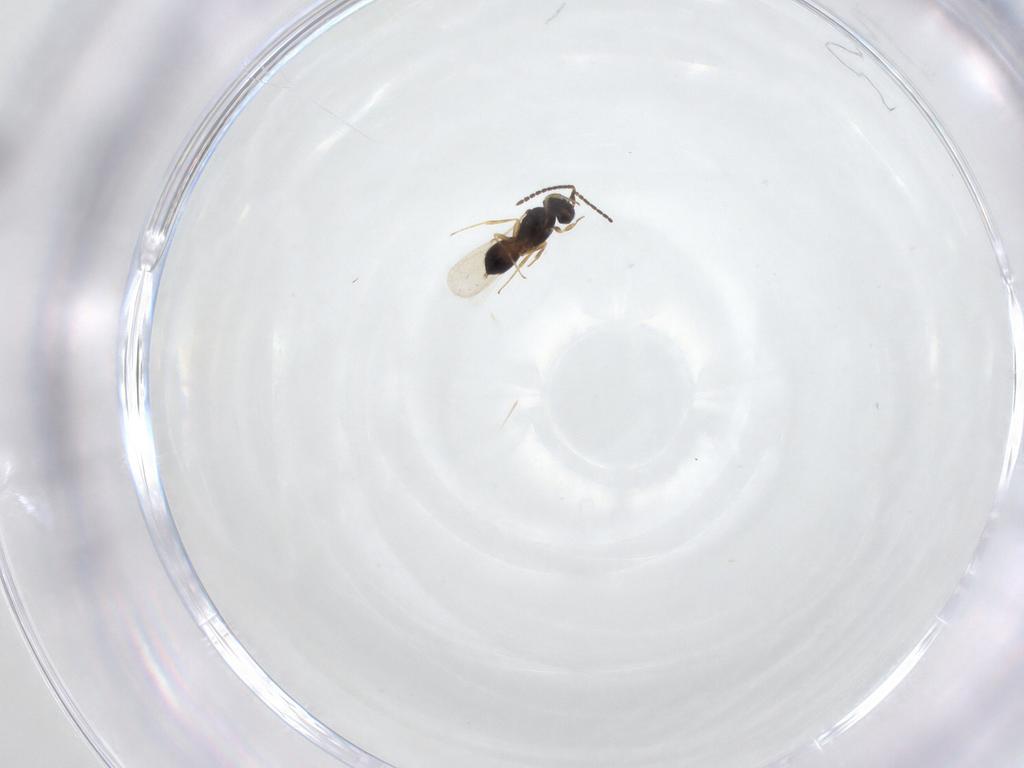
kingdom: Animalia
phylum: Arthropoda
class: Insecta
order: Hymenoptera
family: Scelionidae
